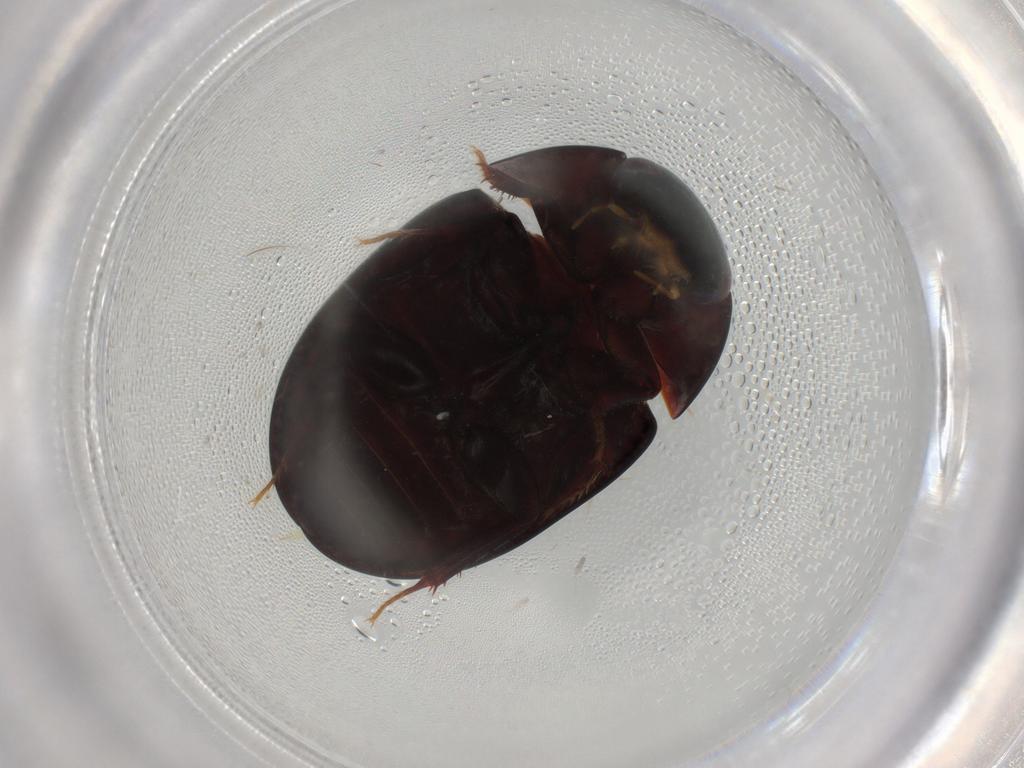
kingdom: Animalia
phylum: Arthropoda
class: Insecta
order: Coleoptera
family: Hydrophilidae
